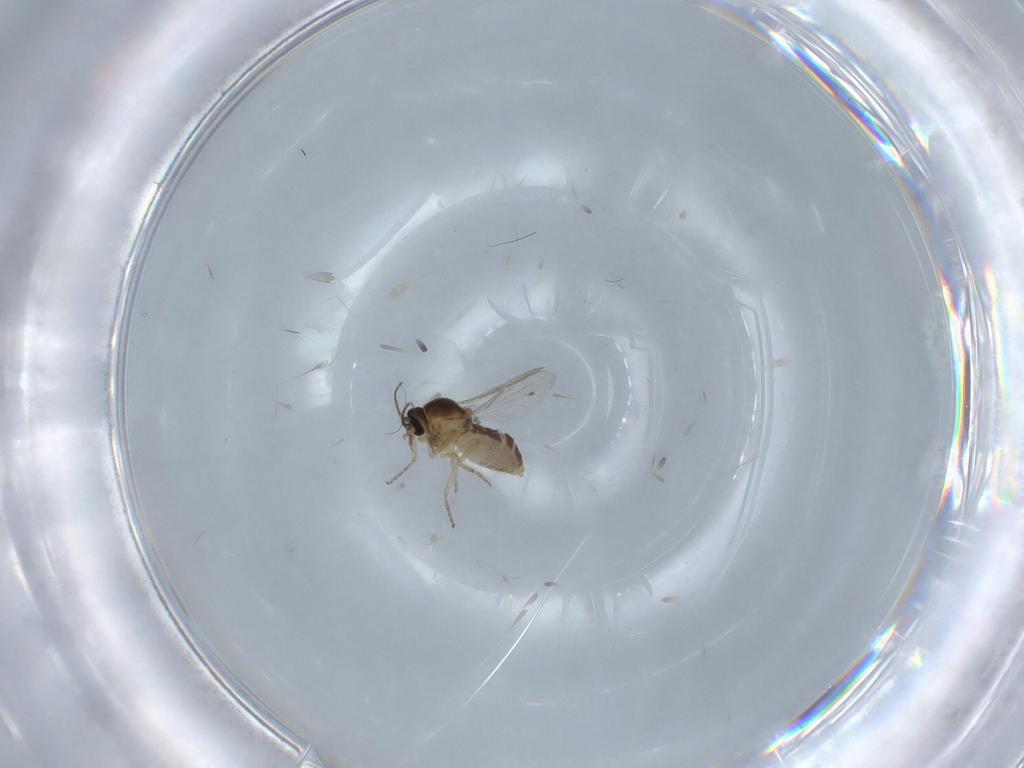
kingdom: Animalia
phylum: Arthropoda
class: Insecta
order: Diptera
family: Ceratopogonidae
